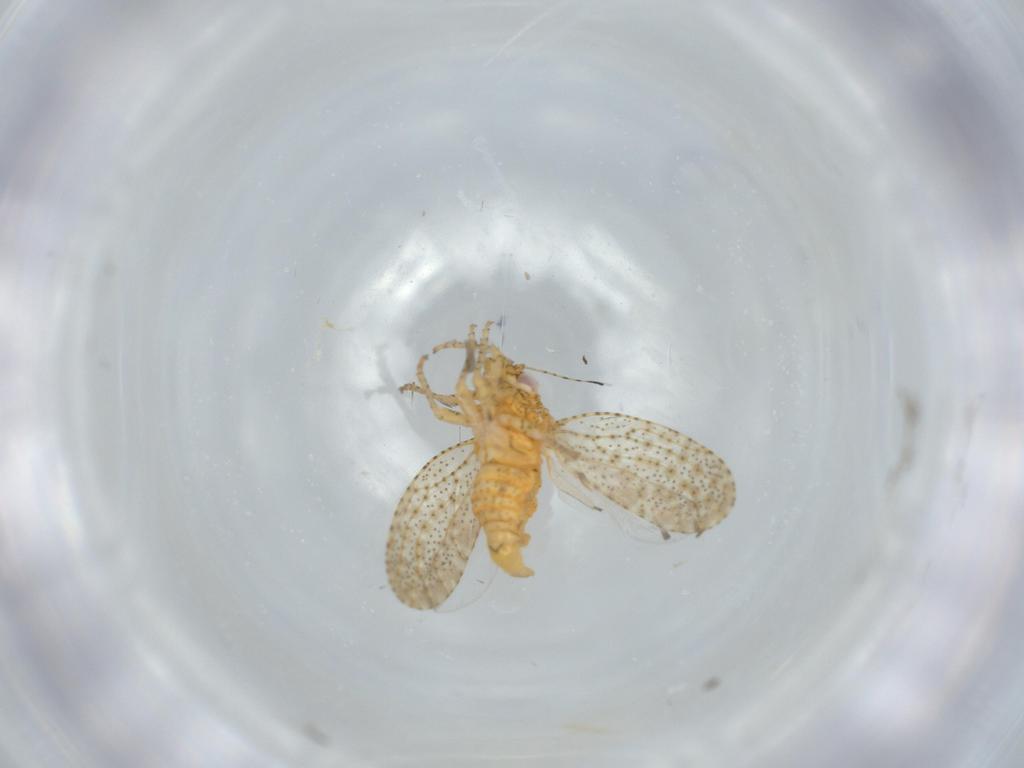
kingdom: Animalia
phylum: Arthropoda
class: Insecta
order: Hemiptera
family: Psyllidae
